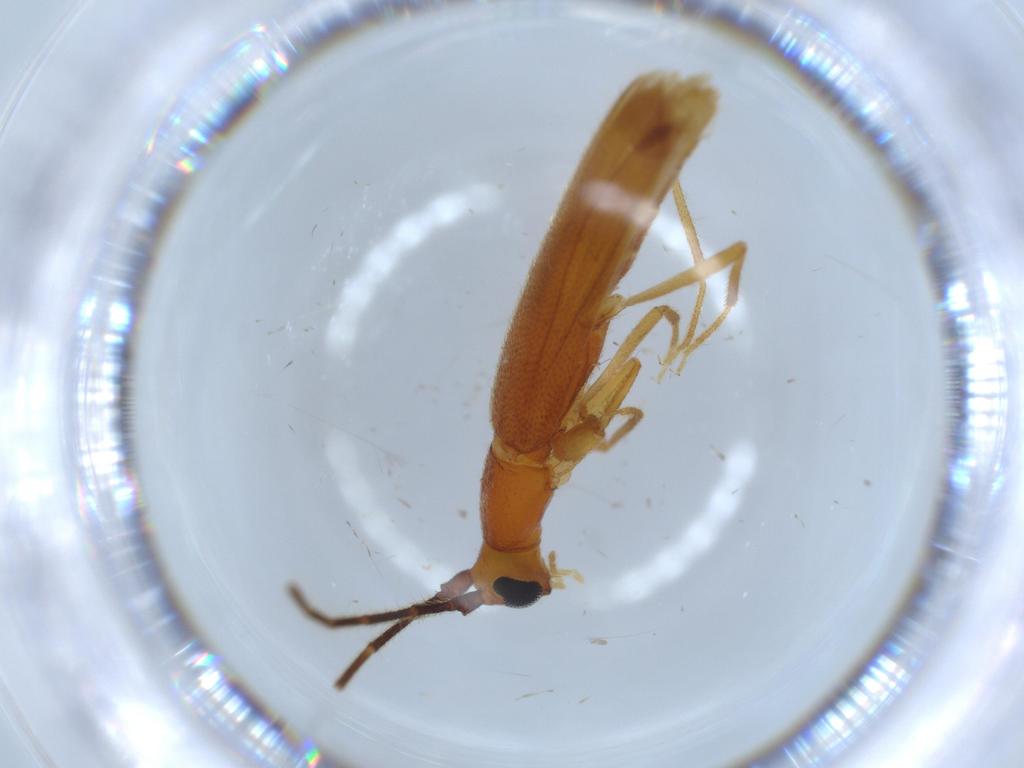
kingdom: Animalia
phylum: Arthropoda
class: Insecta
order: Coleoptera
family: Cerambycidae
